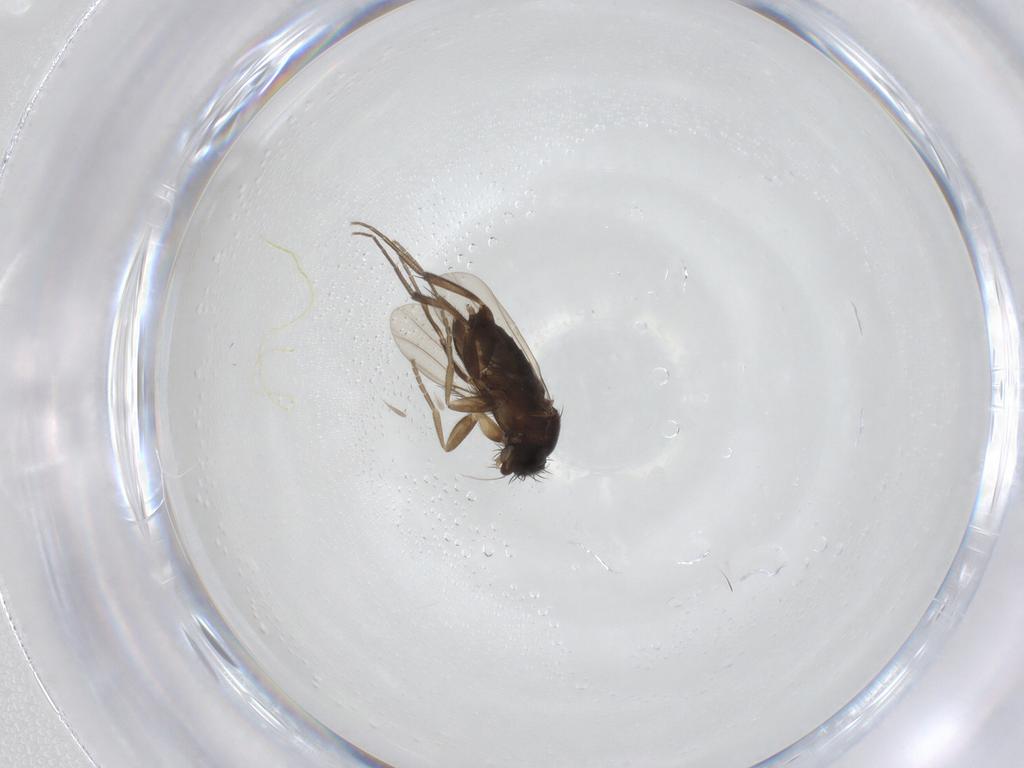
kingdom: Animalia
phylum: Arthropoda
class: Insecta
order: Diptera
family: Phoridae
